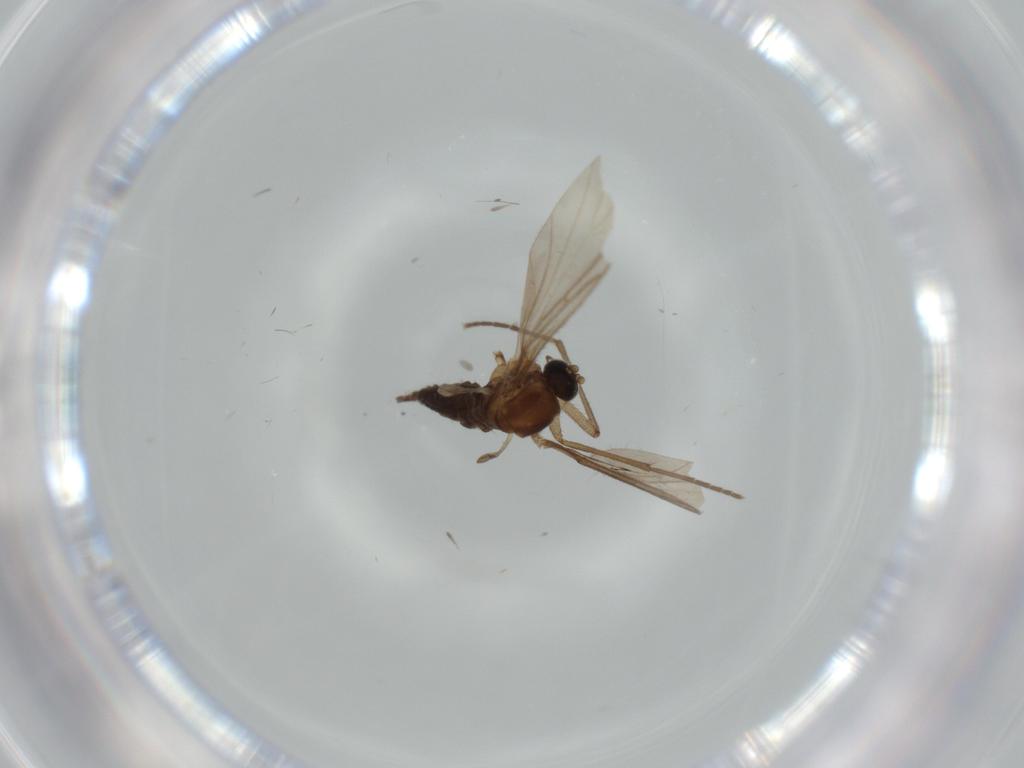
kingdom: Animalia
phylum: Arthropoda
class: Insecta
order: Diptera
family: Sciaridae
